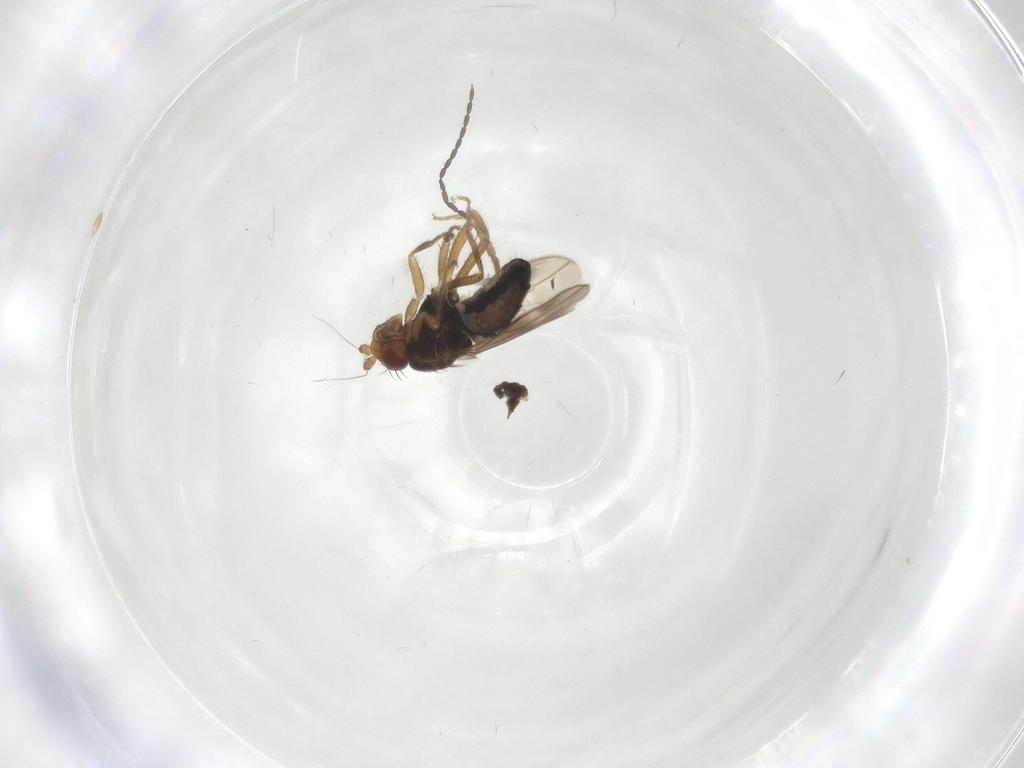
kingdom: Animalia
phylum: Arthropoda
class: Insecta
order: Diptera
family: Sphaeroceridae
